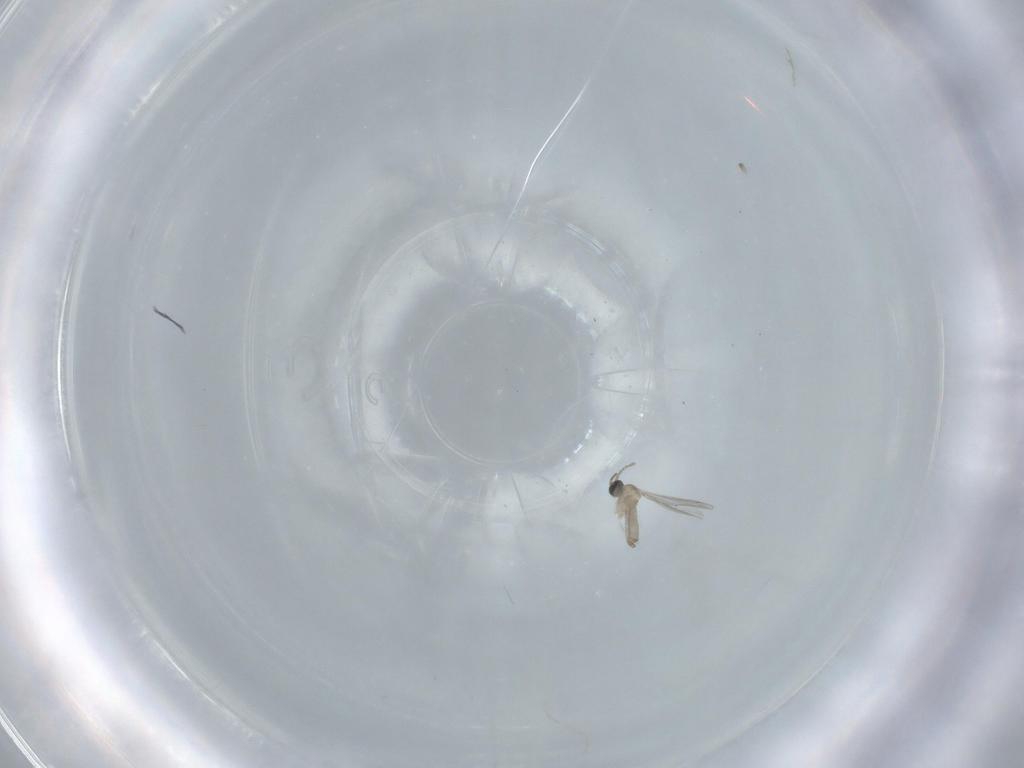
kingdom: Animalia
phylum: Arthropoda
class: Insecta
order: Diptera
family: Cecidomyiidae
